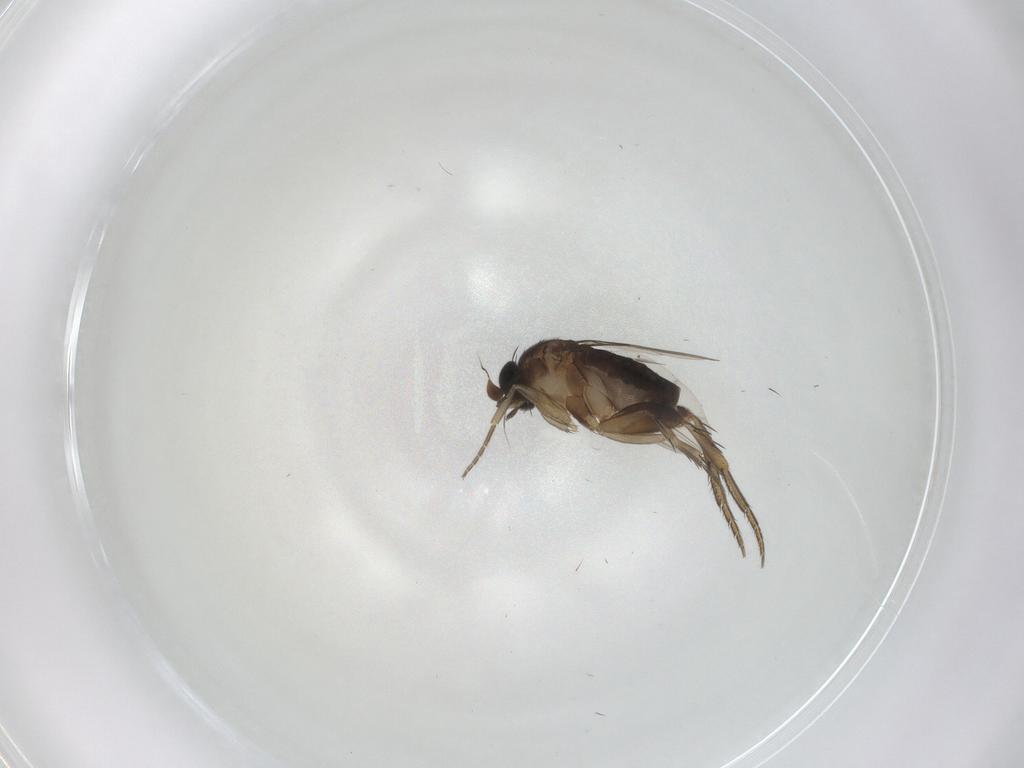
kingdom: Animalia
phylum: Arthropoda
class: Insecta
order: Diptera
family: Phoridae
